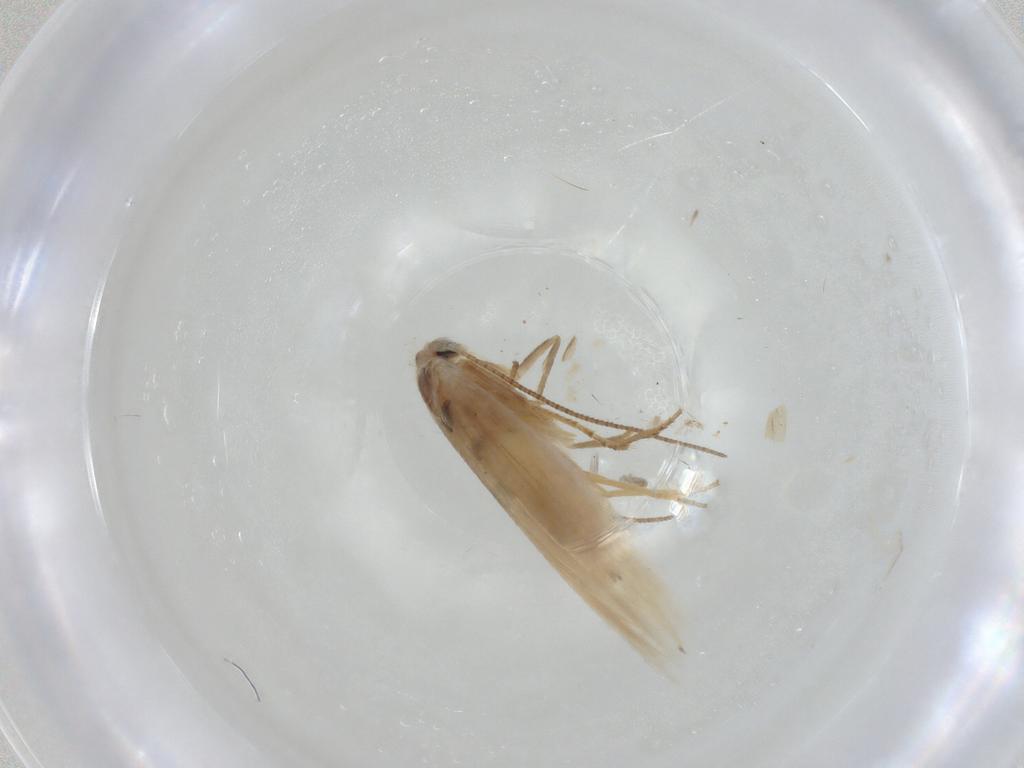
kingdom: Animalia
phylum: Arthropoda
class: Insecta
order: Lepidoptera
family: Bucculatricidae
